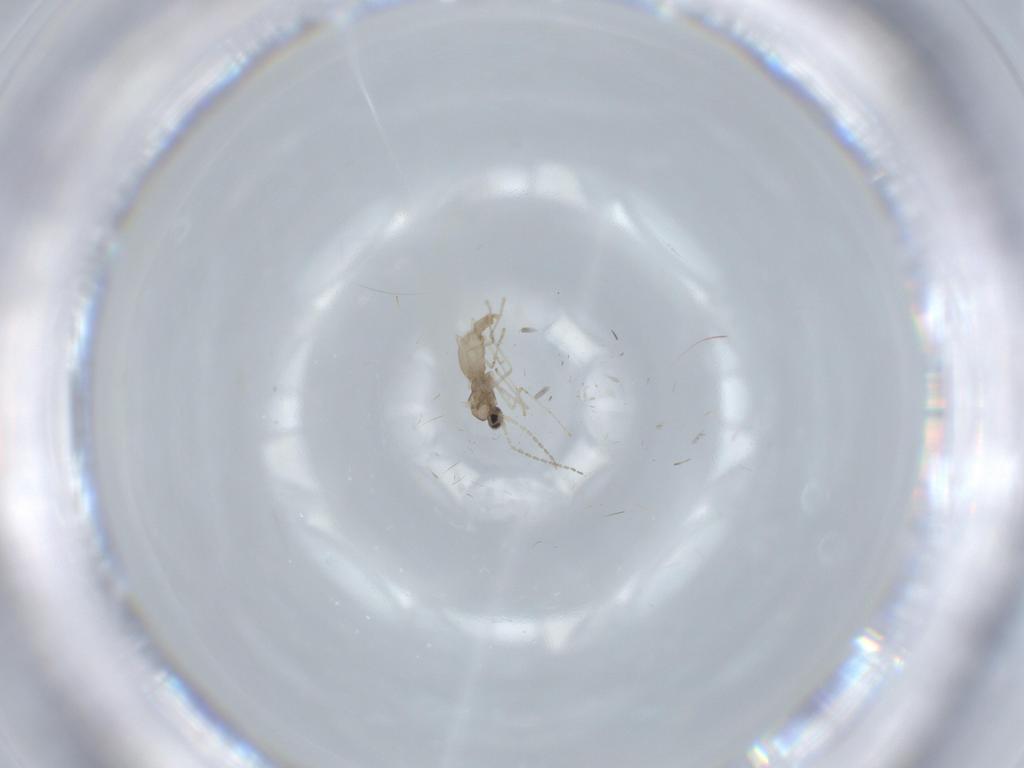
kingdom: Animalia
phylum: Arthropoda
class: Insecta
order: Diptera
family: Cecidomyiidae
